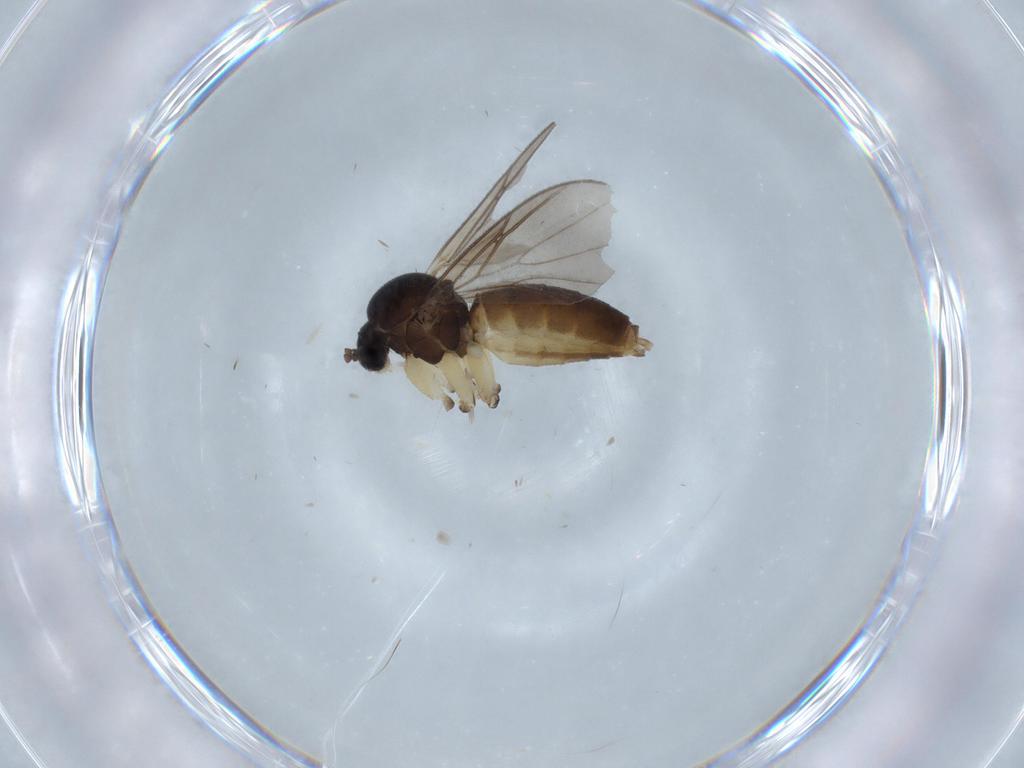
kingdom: Animalia
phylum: Arthropoda
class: Insecta
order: Diptera
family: Mycetophilidae
